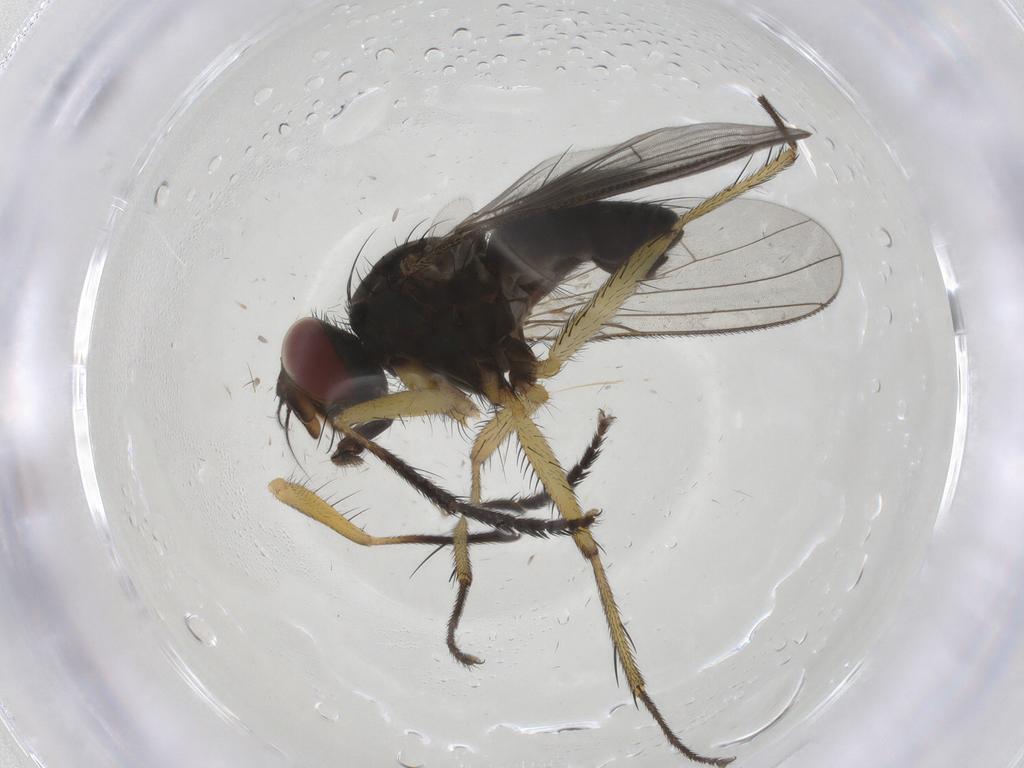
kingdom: Animalia
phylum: Arthropoda
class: Insecta
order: Diptera
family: Muscidae
